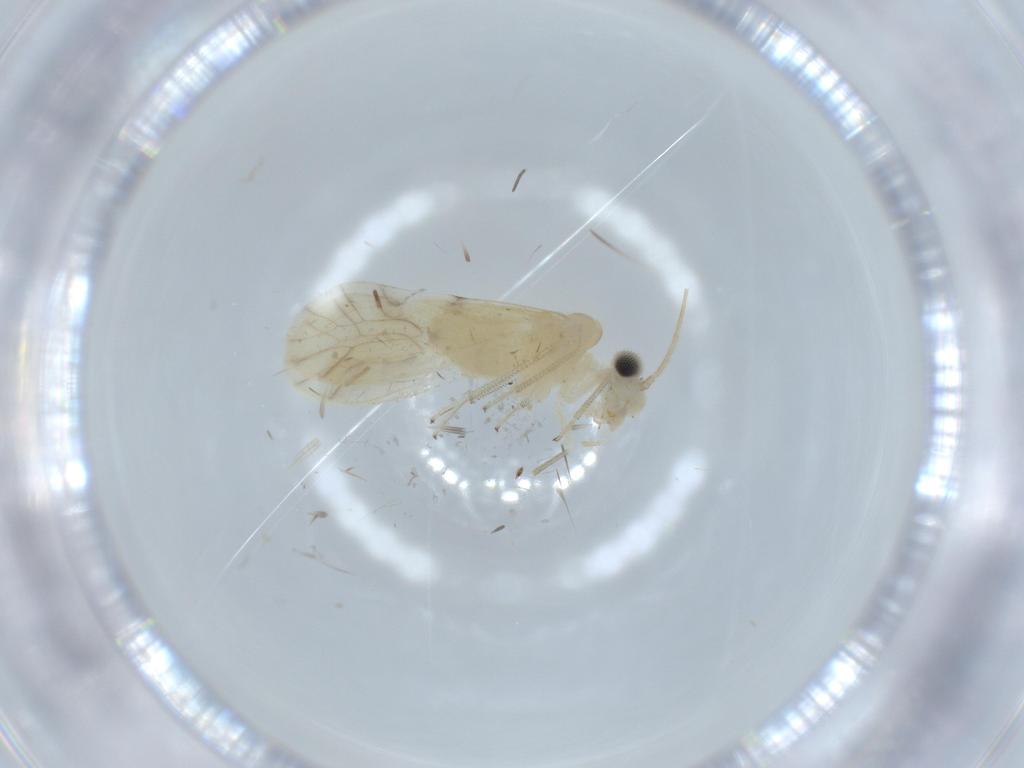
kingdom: Animalia
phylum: Arthropoda
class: Insecta
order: Psocodea
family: Caeciliusidae
